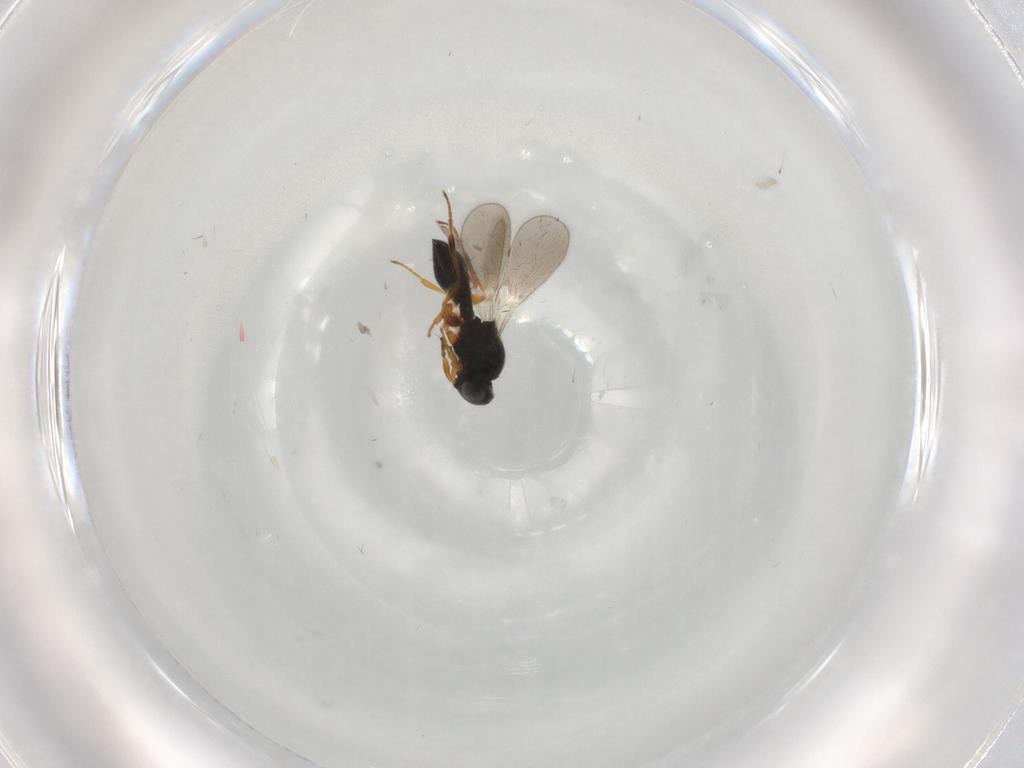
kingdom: Animalia
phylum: Arthropoda
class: Insecta
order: Hymenoptera
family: Platygastridae
